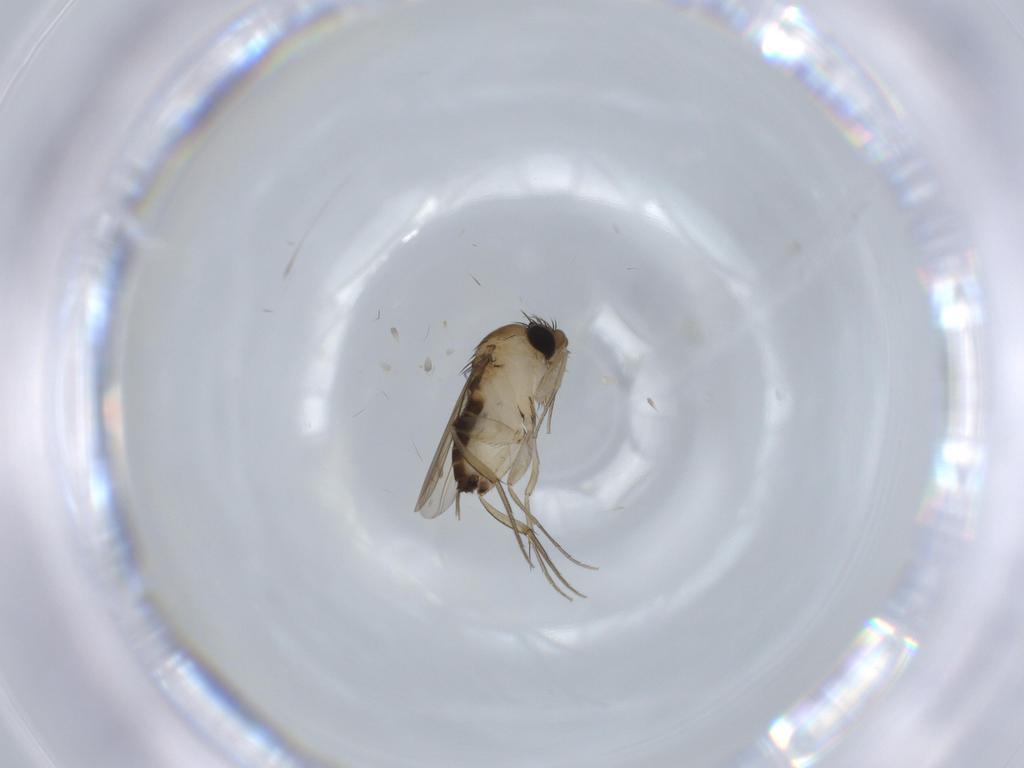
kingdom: Animalia
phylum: Arthropoda
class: Insecta
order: Diptera
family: Phoridae
